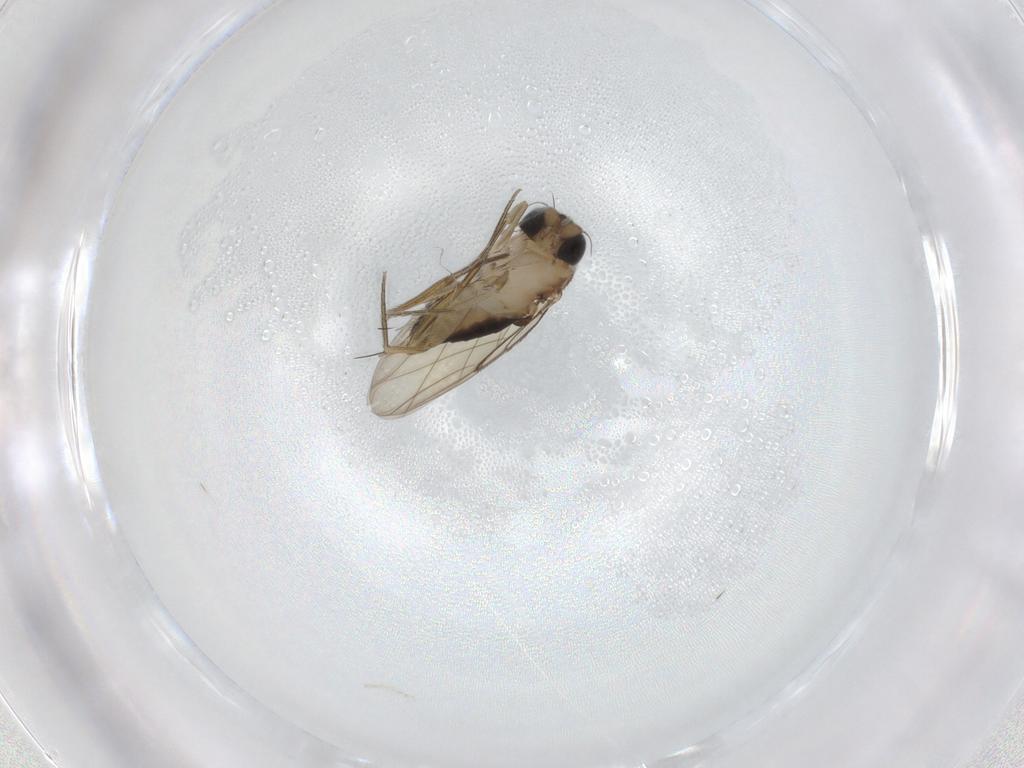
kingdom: Animalia
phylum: Arthropoda
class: Insecta
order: Diptera
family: Phoridae
